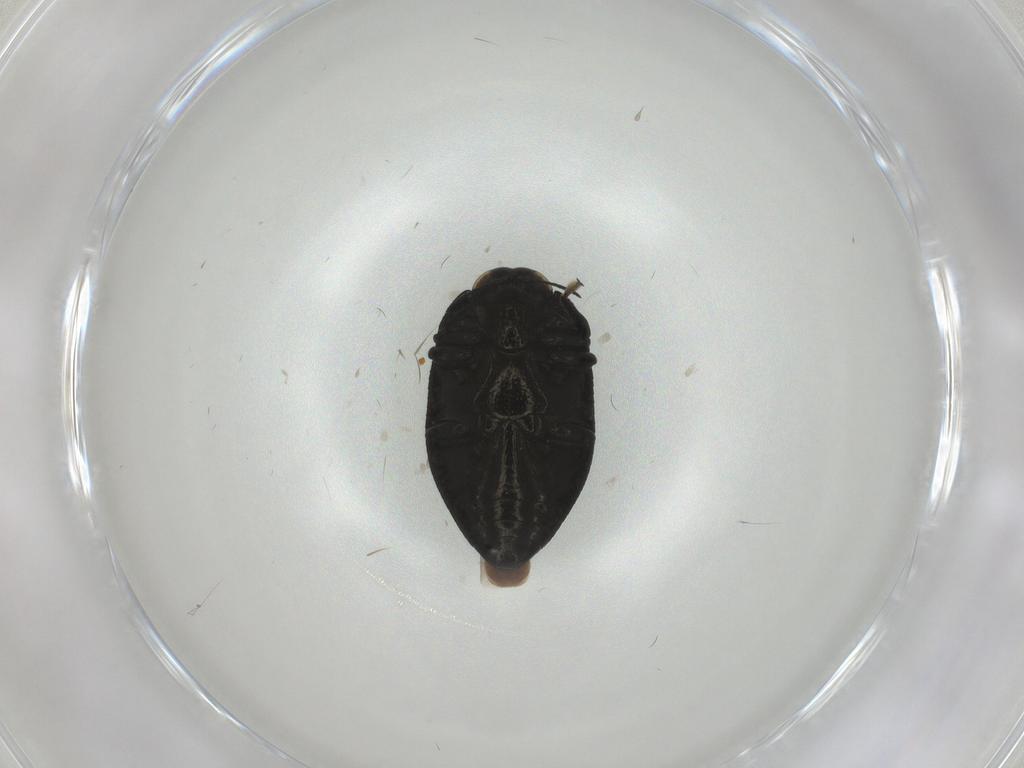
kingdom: Animalia
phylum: Arthropoda
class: Insecta
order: Coleoptera
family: Buprestidae
